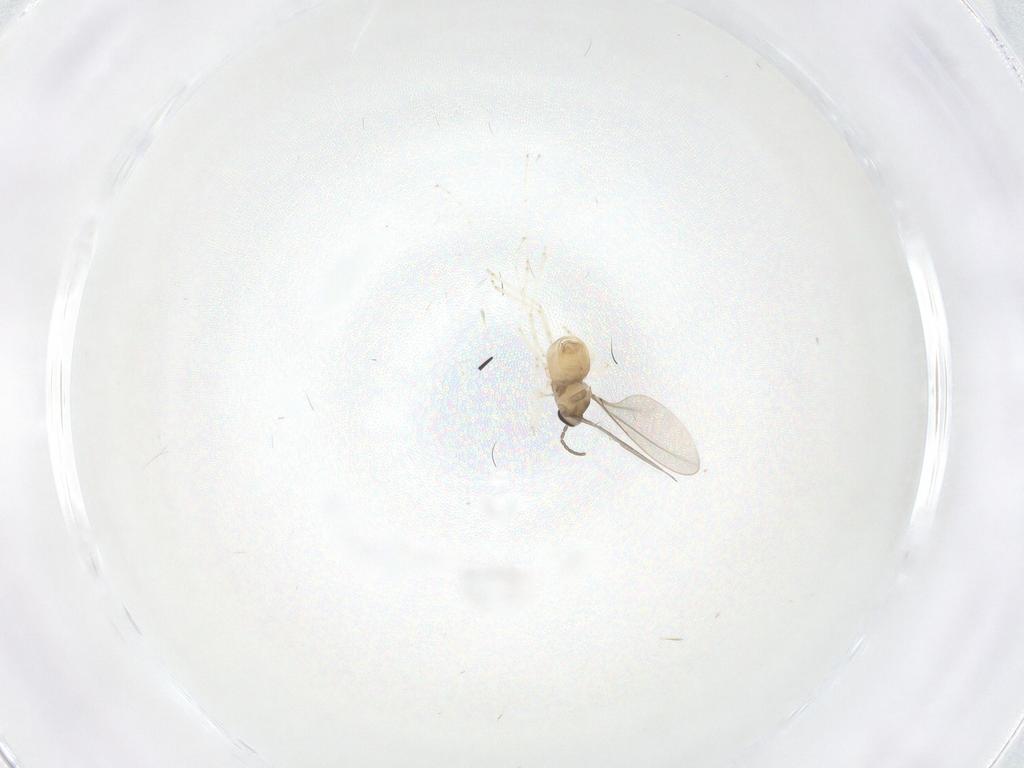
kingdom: Animalia
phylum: Arthropoda
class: Insecta
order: Diptera
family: Cecidomyiidae
